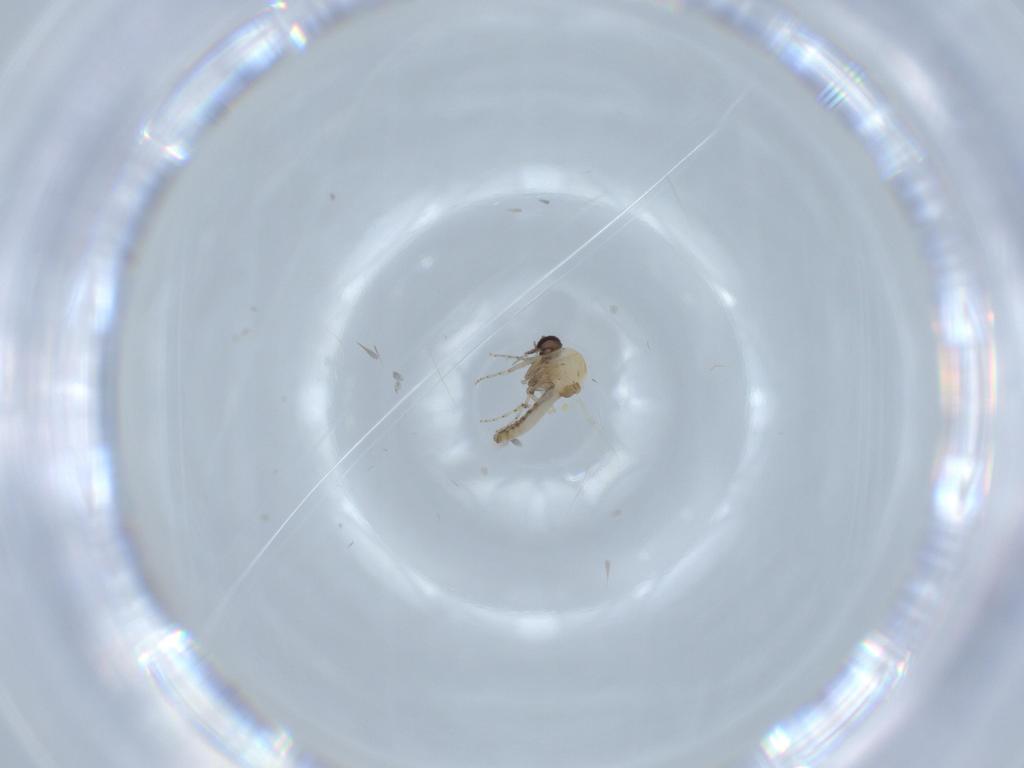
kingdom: Animalia
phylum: Arthropoda
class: Insecta
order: Diptera
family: Ceratopogonidae
